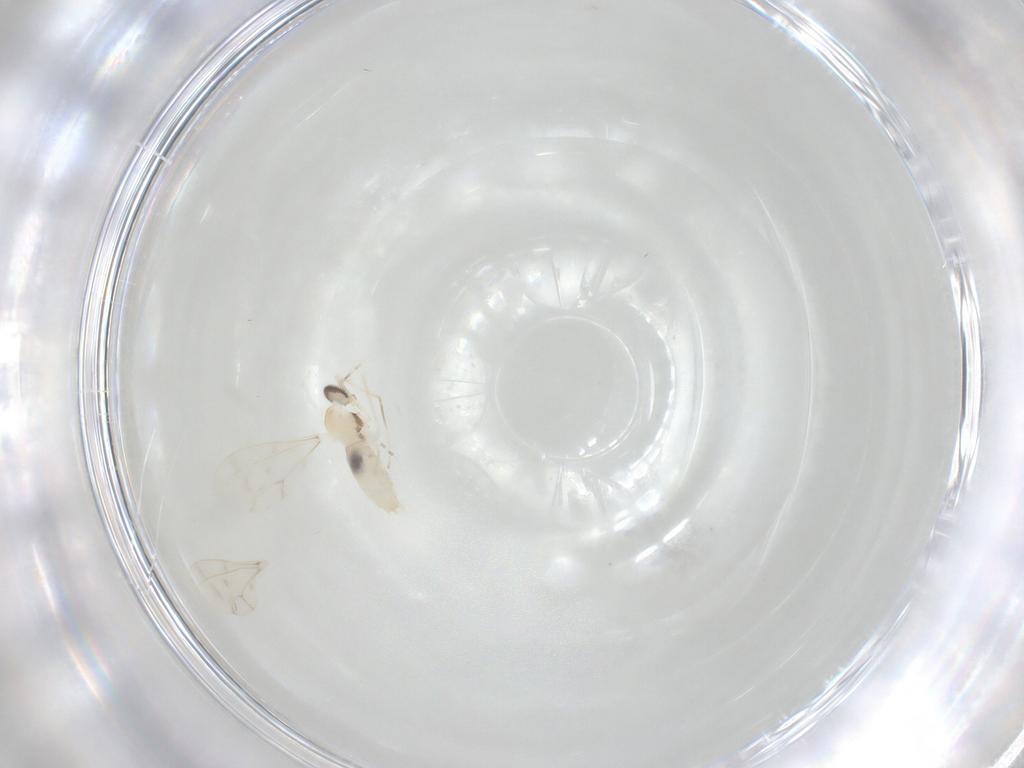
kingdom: Animalia
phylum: Arthropoda
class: Insecta
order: Diptera
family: Cecidomyiidae
